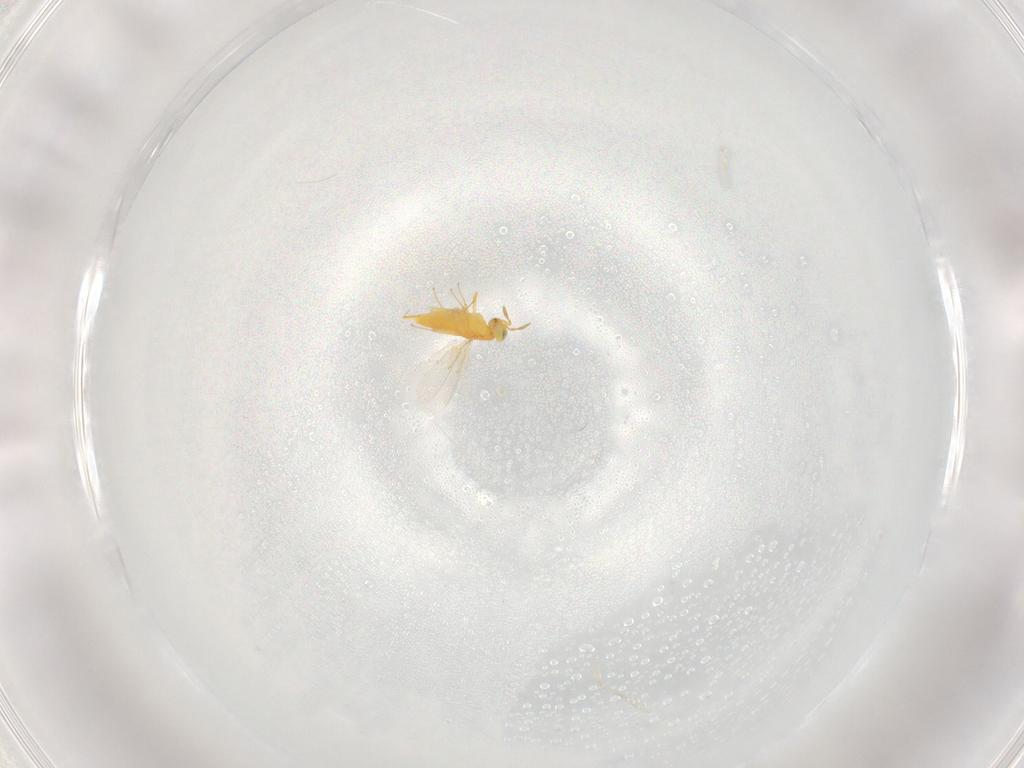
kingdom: Animalia
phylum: Arthropoda
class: Insecta
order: Hymenoptera
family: Aphelinidae
